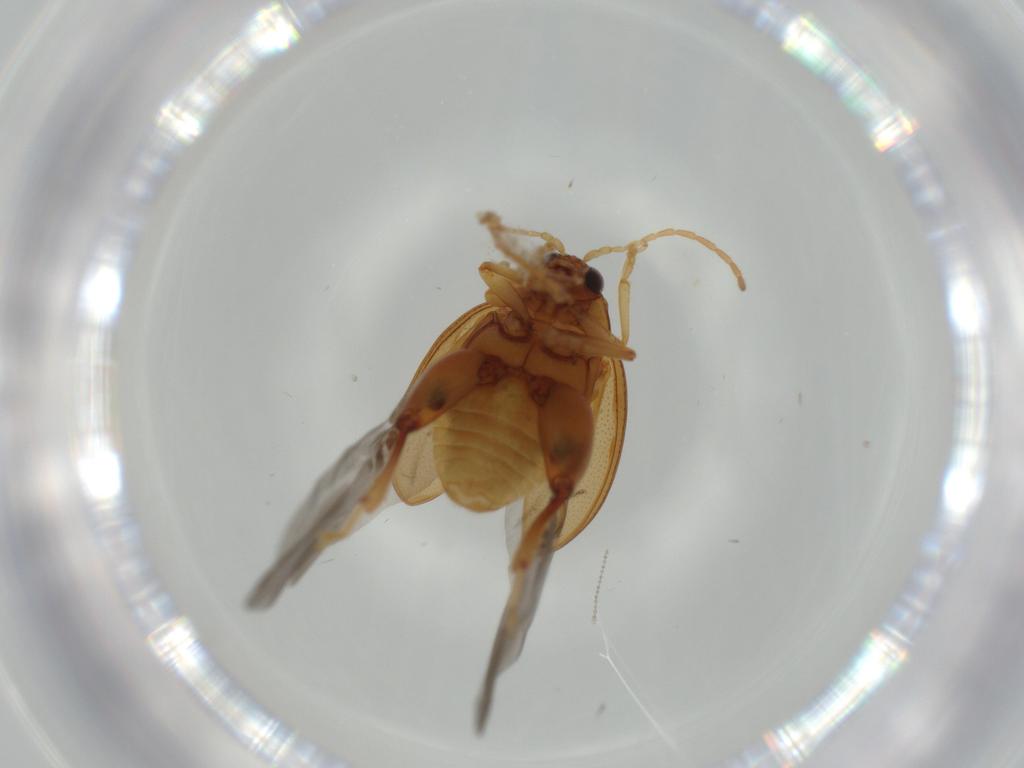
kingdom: Animalia
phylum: Arthropoda
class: Insecta
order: Coleoptera
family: Chrysomelidae
